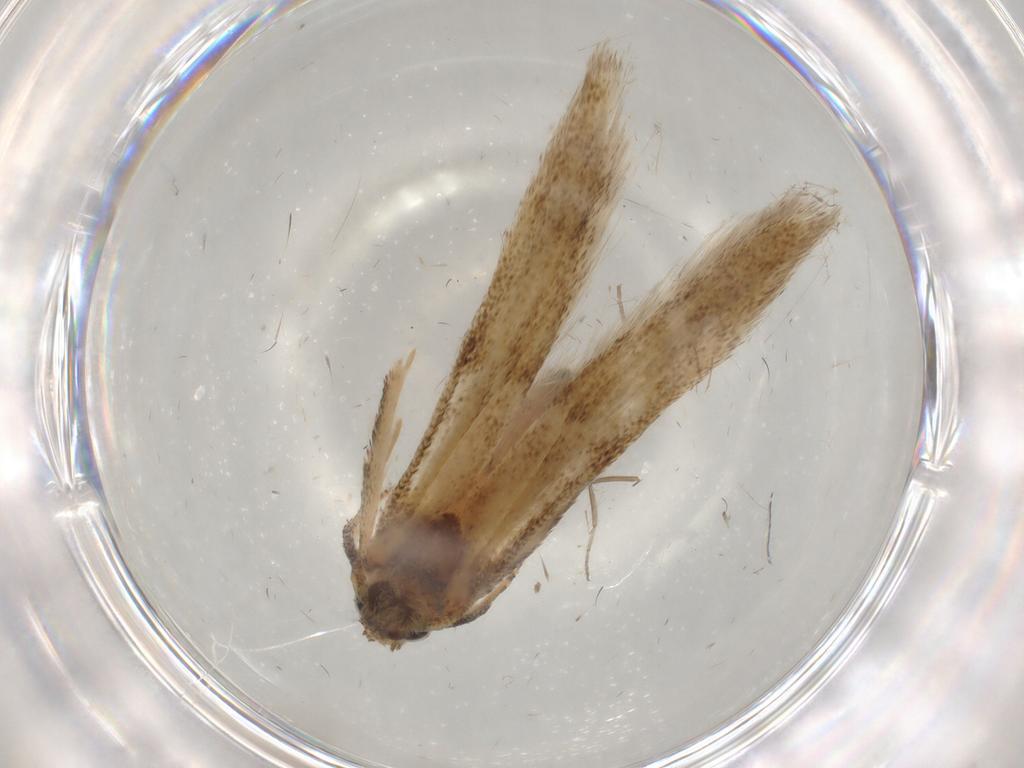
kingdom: Animalia
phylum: Arthropoda
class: Insecta
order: Lepidoptera
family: Blastobasidae
